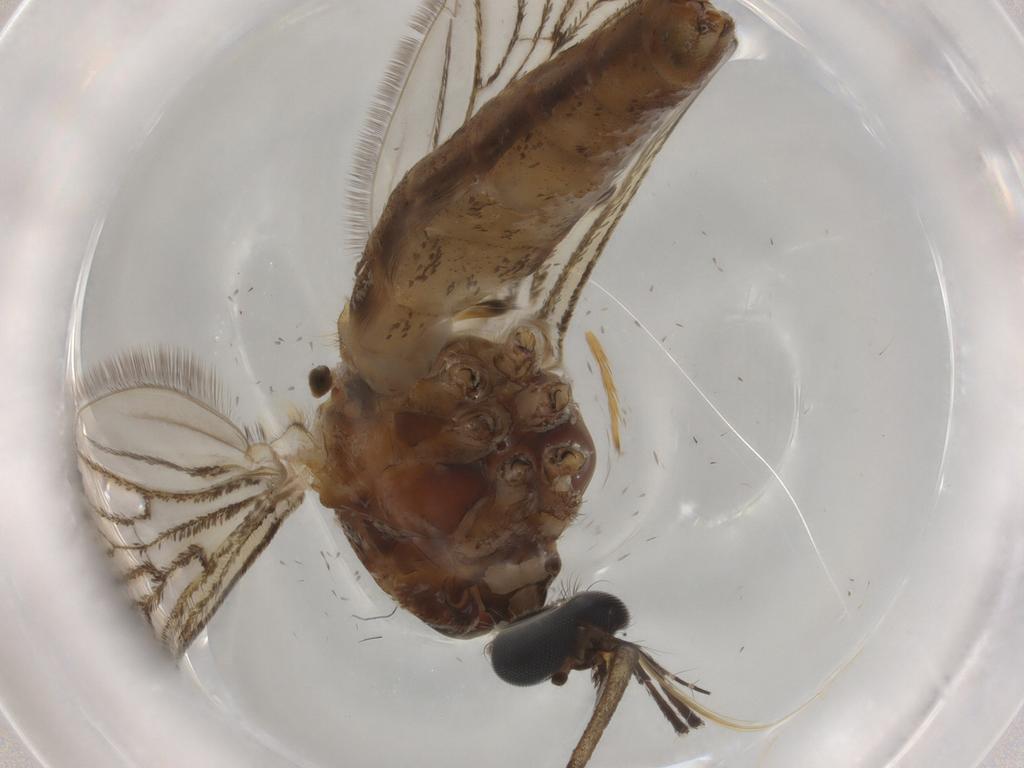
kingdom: Animalia
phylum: Arthropoda
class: Insecta
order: Diptera
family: Cecidomyiidae
